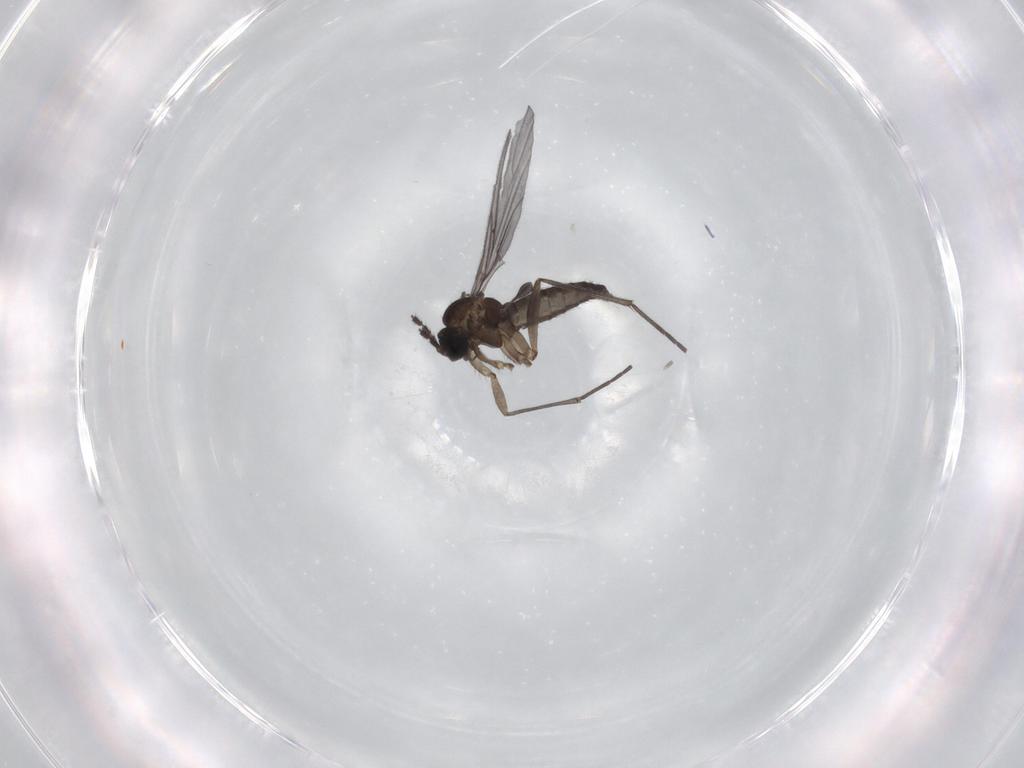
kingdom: Animalia
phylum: Arthropoda
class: Insecta
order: Diptera
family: Sciaridae
